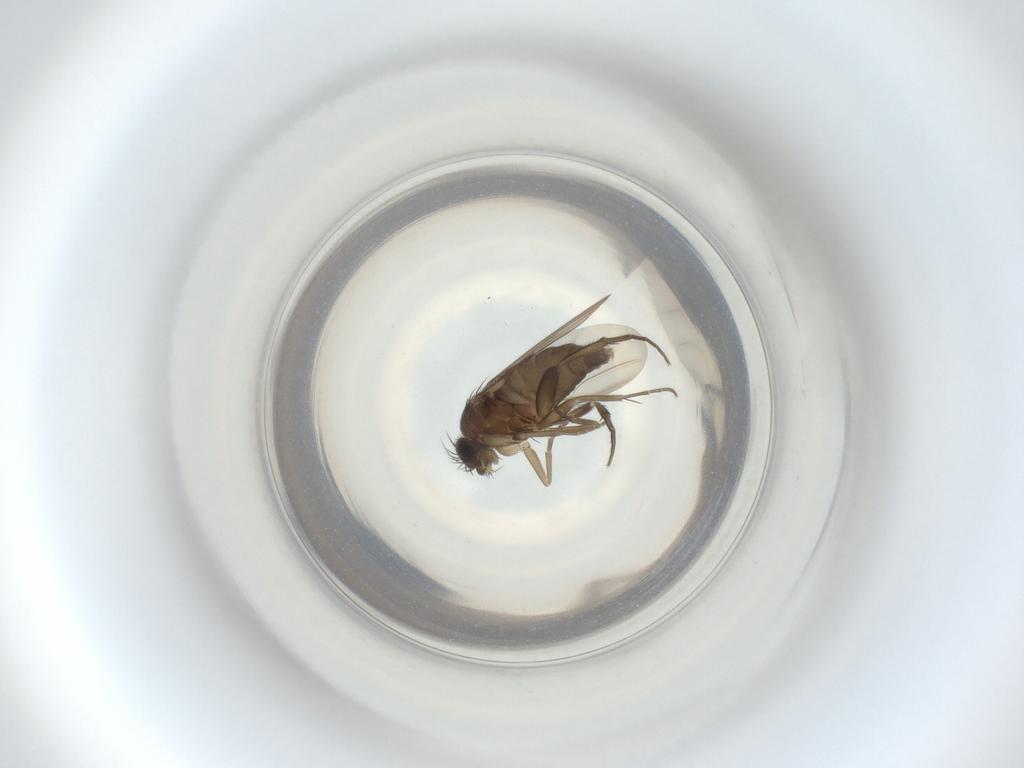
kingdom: Animalia
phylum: Arthropoda
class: Insecta
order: Diptera
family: Phoridae
